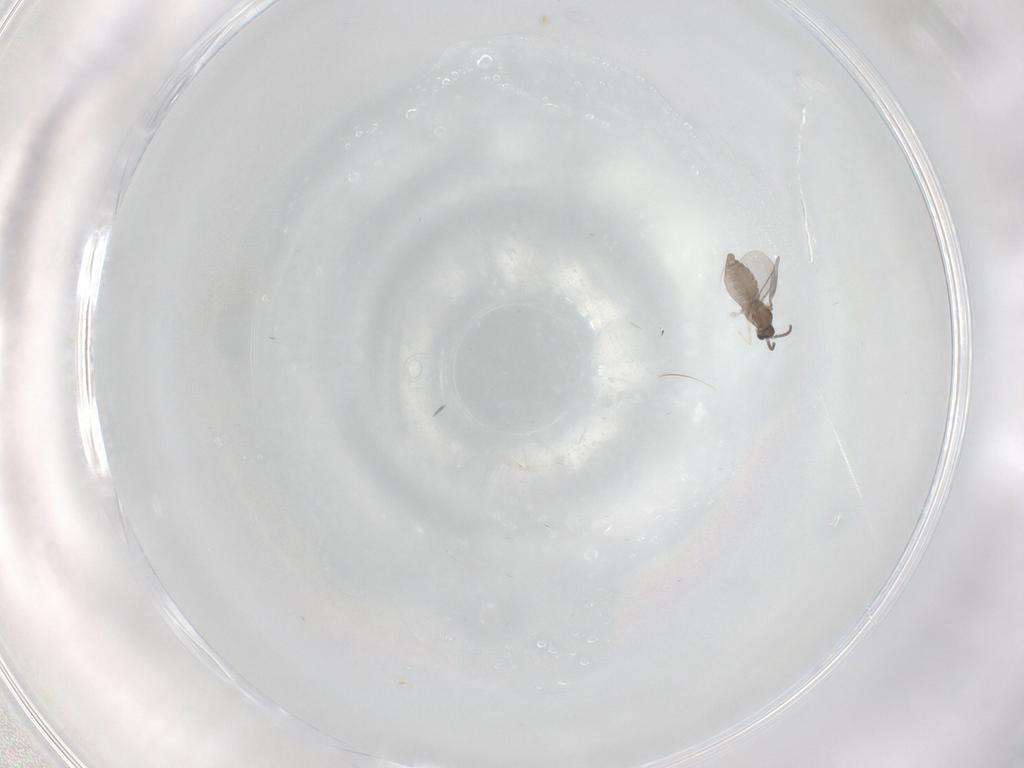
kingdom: Animalia
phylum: Arthropoda
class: Insecta
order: Diptera
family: Cecidomyiidae
